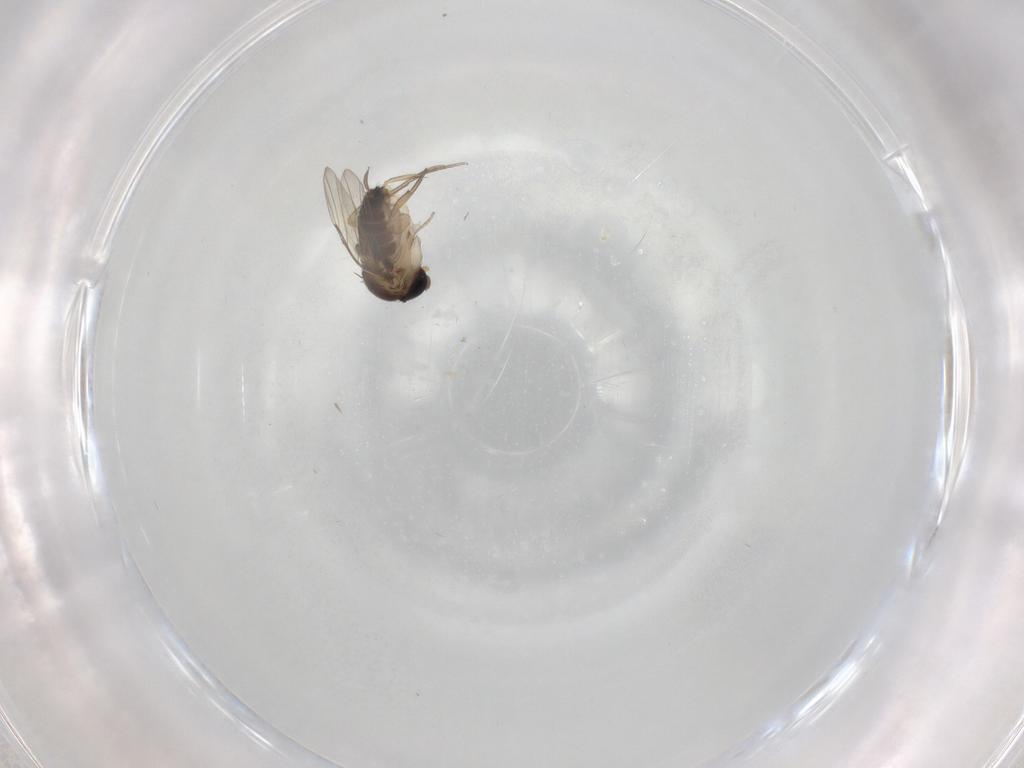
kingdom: Animalia
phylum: Arthropoda
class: Insecta
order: Diptera
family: Phoridae
